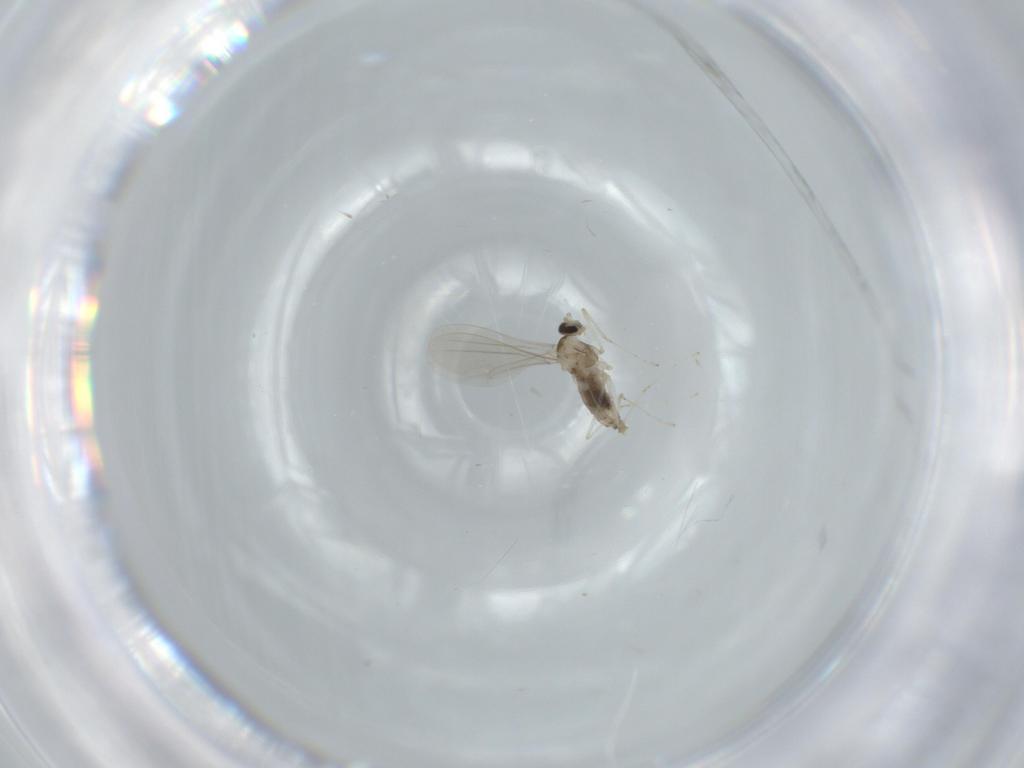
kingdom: Animalia
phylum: Arthropoda
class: Insecta
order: Diptera
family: Cecidomyiidae
